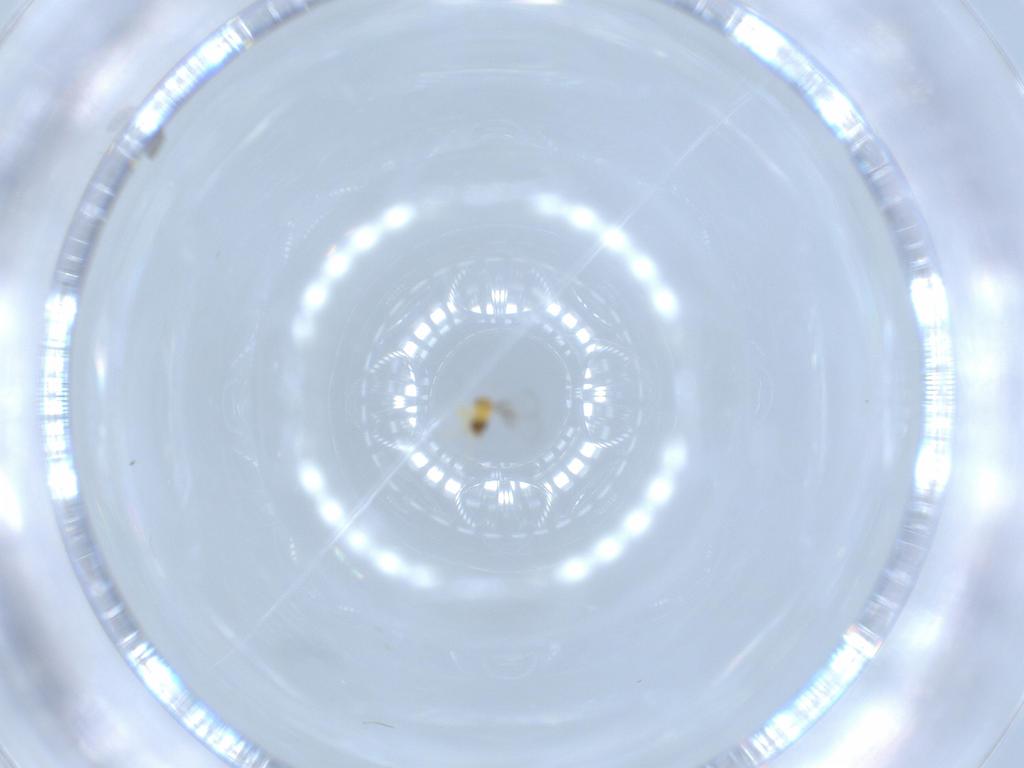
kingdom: Animalia
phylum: Arthropoda
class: Insecta
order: Hymenoptera
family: Trichogrammatidae
